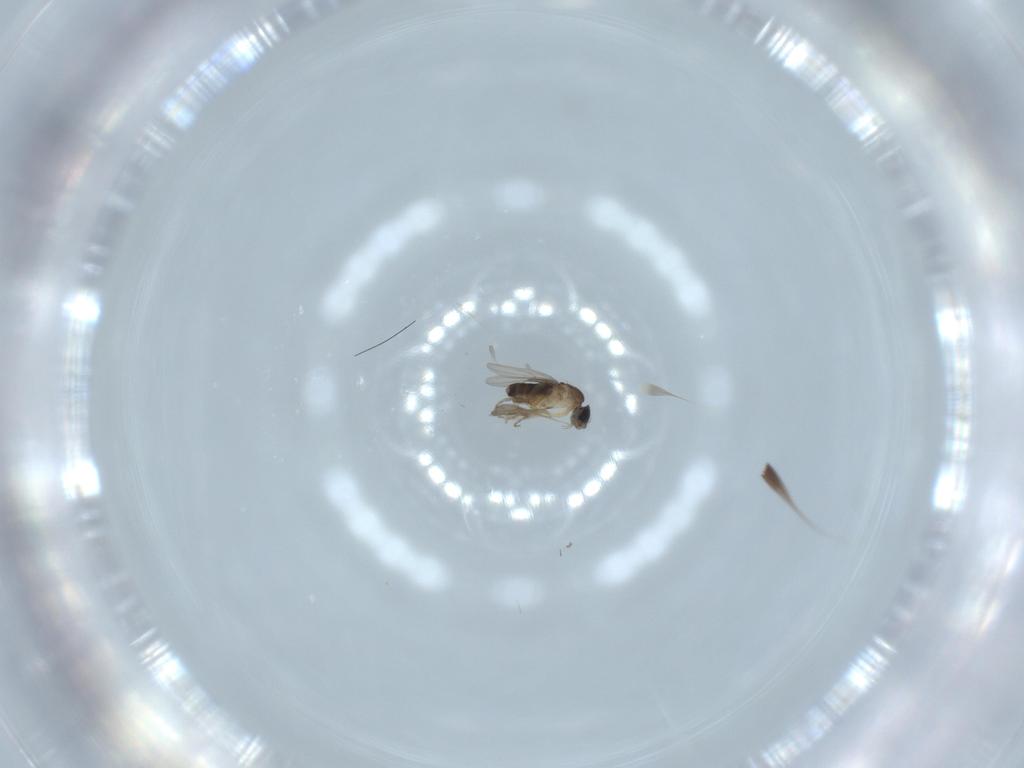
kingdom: Animalia
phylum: Arthropoda
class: Insecta
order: Diptera
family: Phoridae
